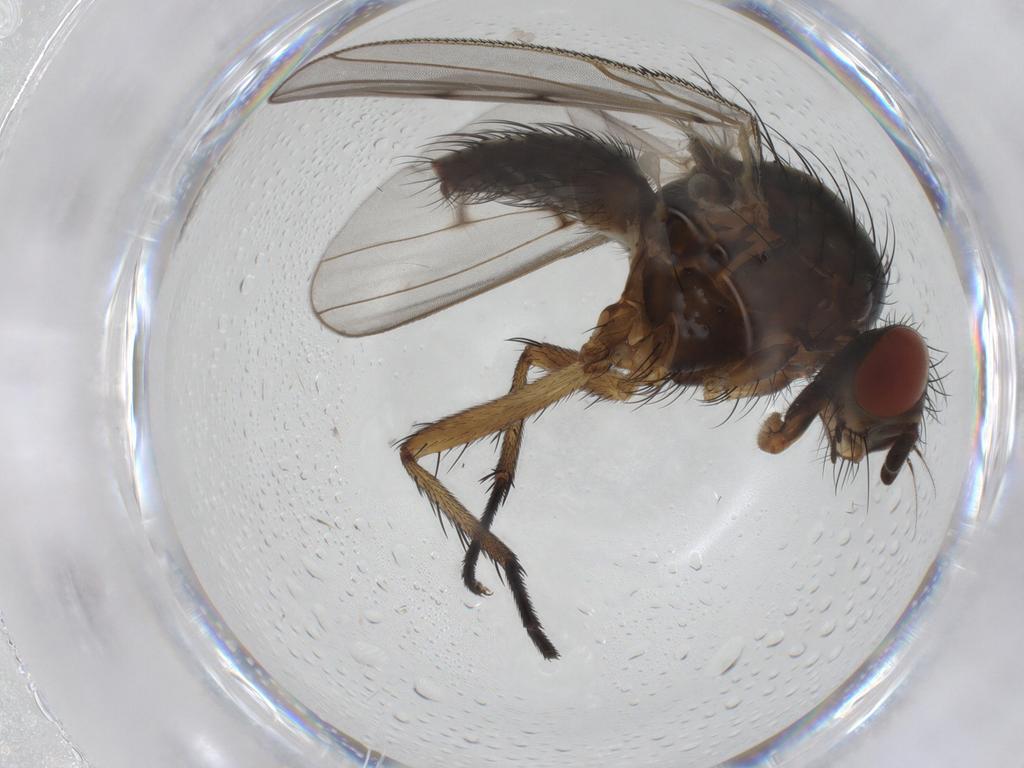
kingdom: Animalia
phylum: Arthropoda
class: Insecta
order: Diptera
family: Anthomyiidae
